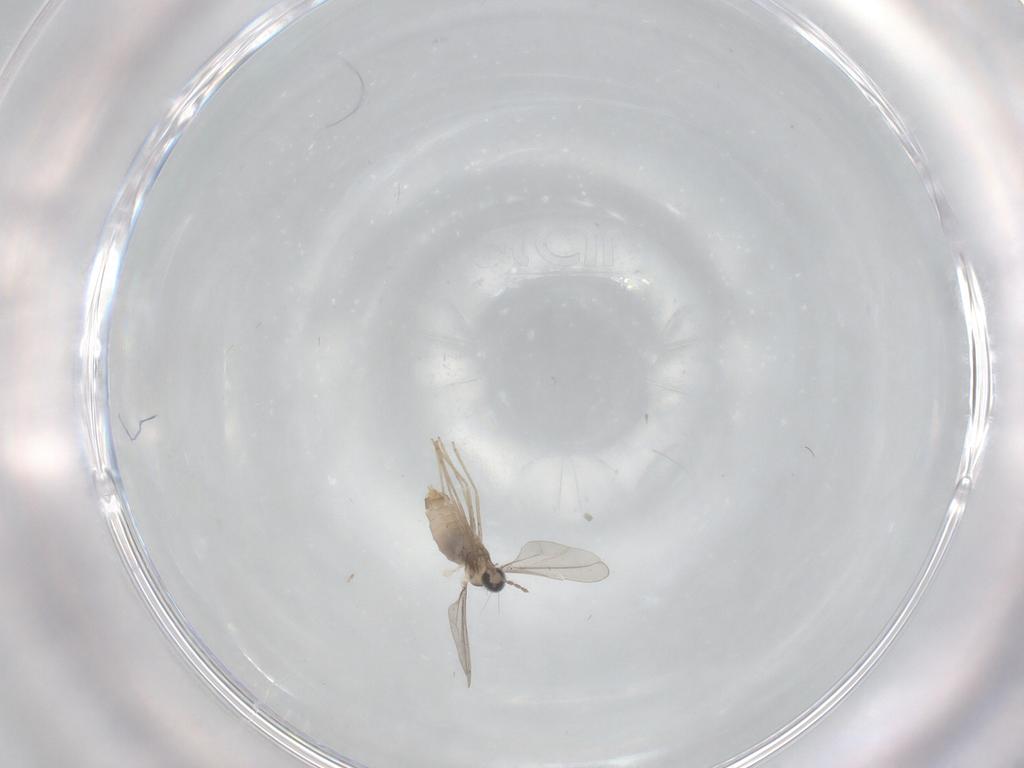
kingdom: Animalia
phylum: Arthropoda
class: Insecta
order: Diptera
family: Cecidomyiidae
